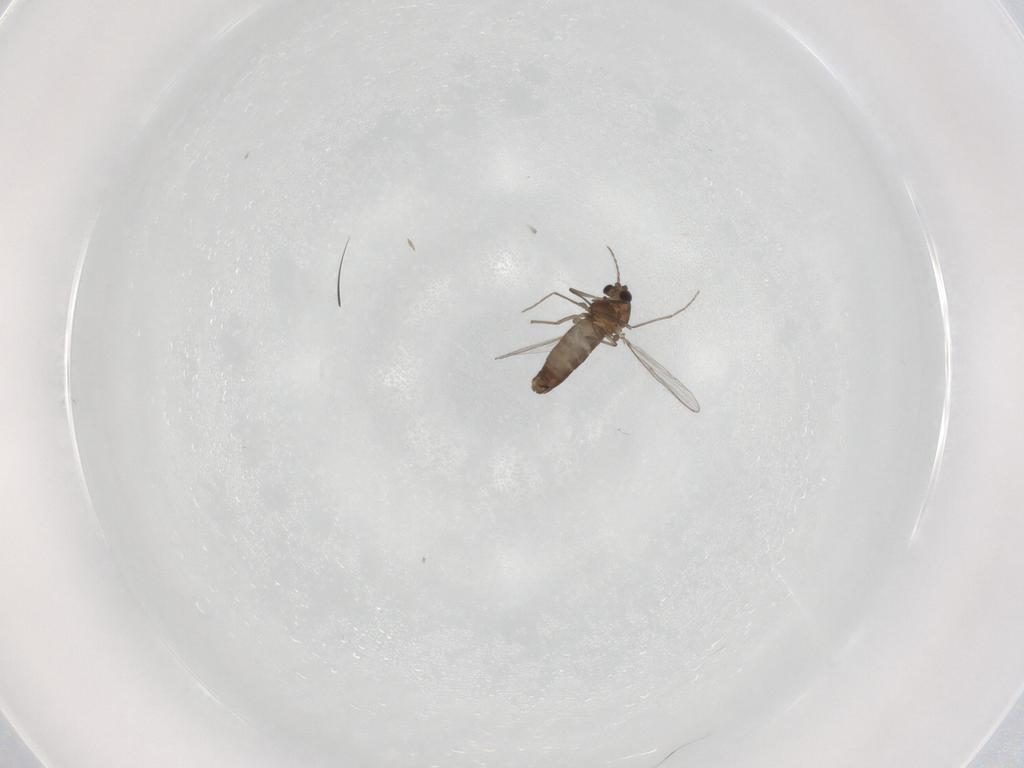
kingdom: Animalia
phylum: Arthropoda
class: Insecta
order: Diptera
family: Chironomidae
